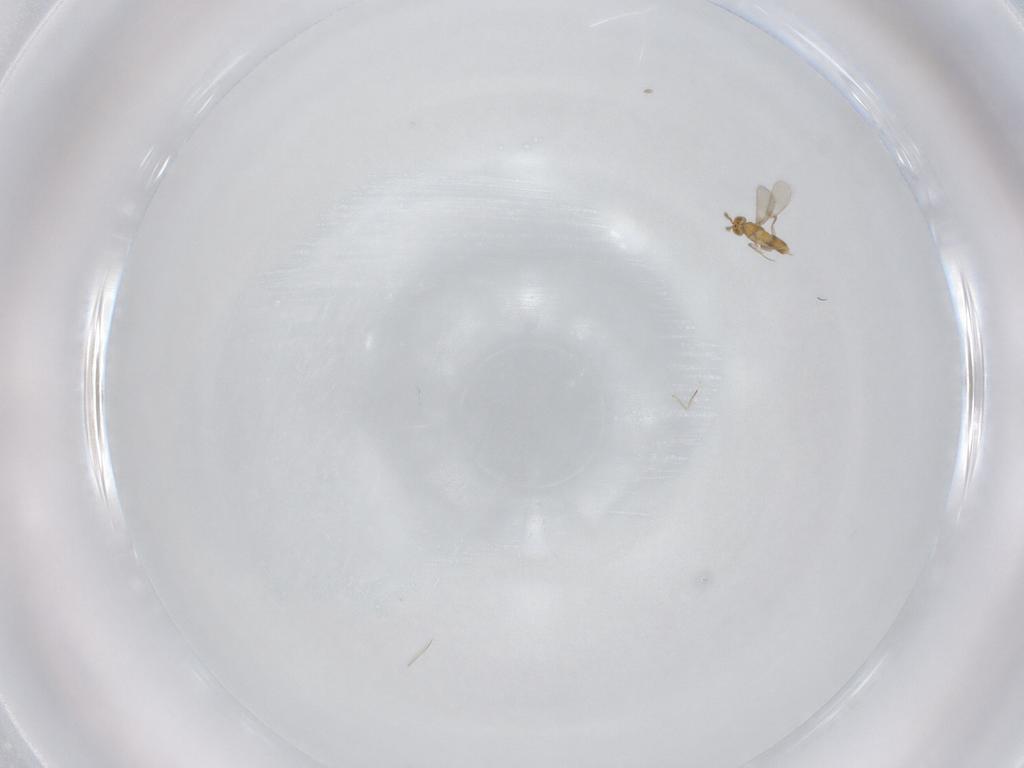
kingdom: Animalia
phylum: Arthropoda
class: Insecta
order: Hymenoptera
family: Aphelinidae
